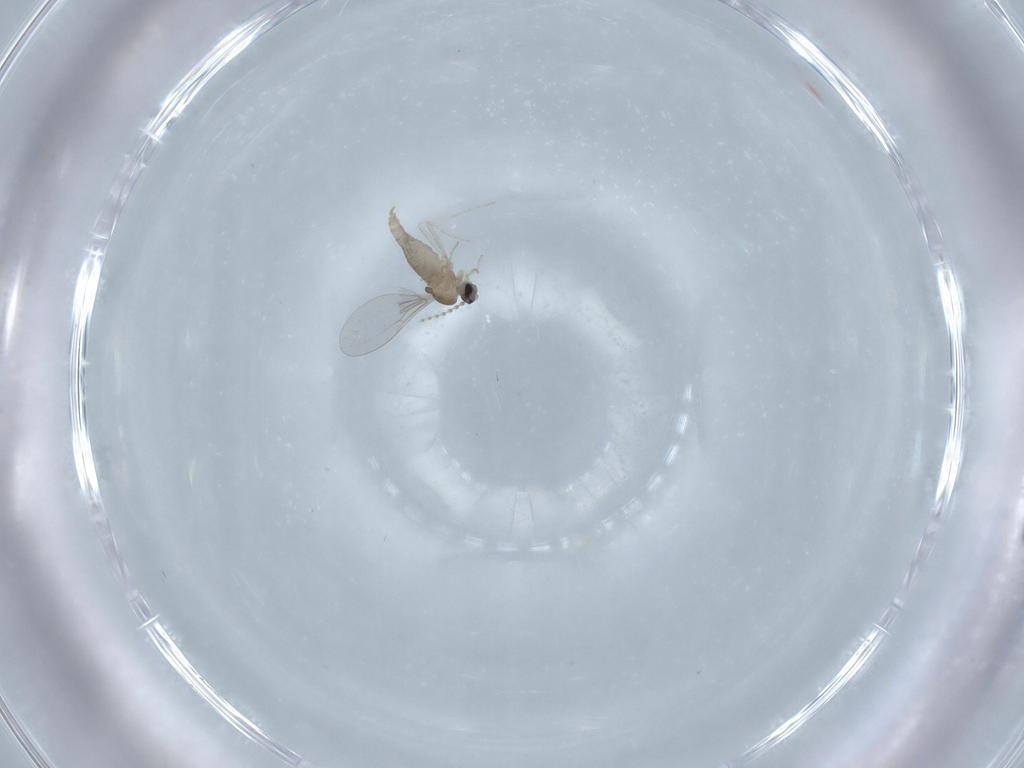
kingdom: Animalia
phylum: Arthropoda
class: Insecta
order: Diptera
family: Cecidomyiidae
